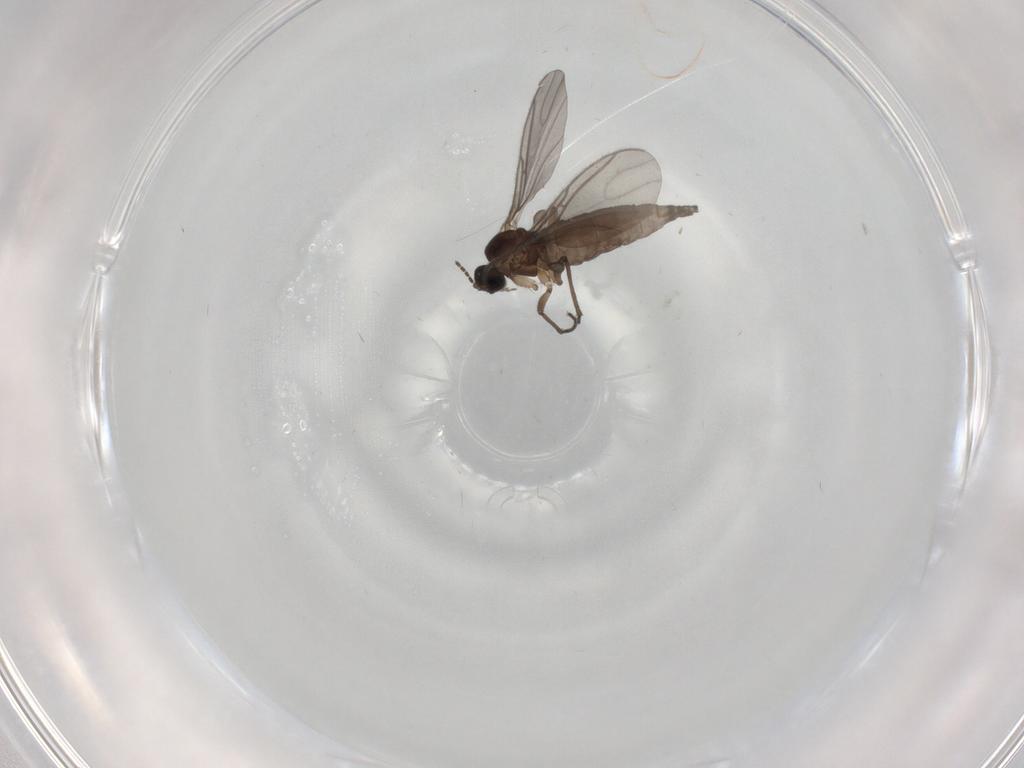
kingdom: Animalia
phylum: Arthropoda
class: Insecta
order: Diptera
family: Sciaridae
